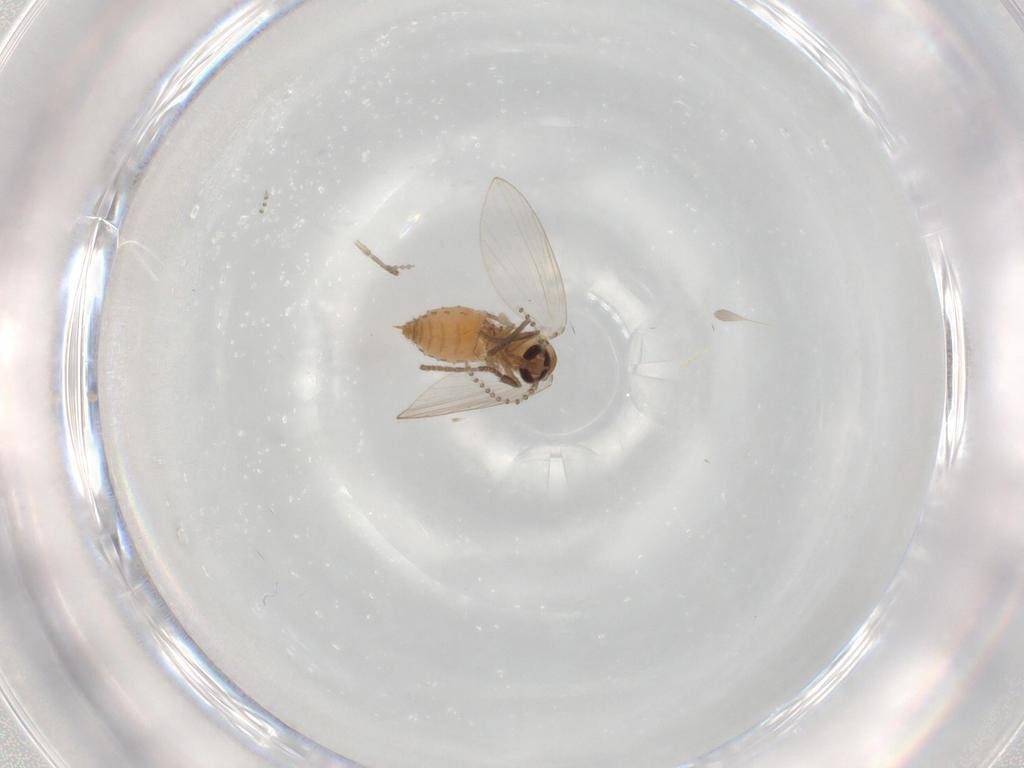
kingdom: Animalia
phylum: Arthropoda
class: Insecta
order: Diptera
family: Psychodidae
